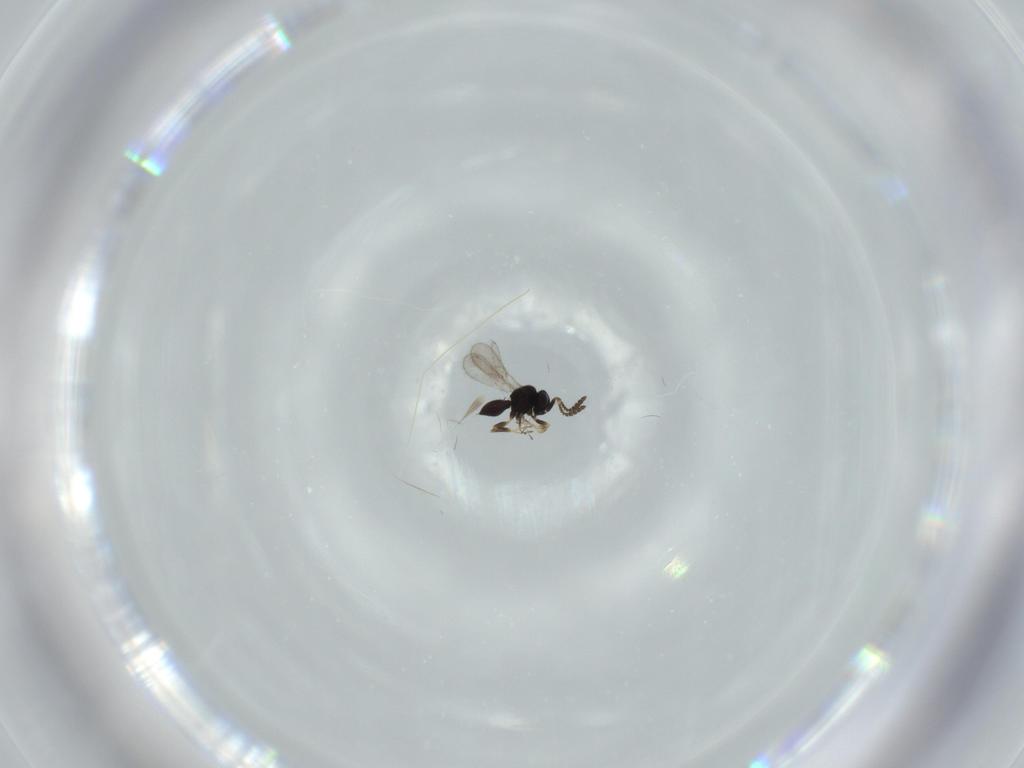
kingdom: Animalia
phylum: Arthropoda
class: Insecta
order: Hymenoptera
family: Scelionidae
